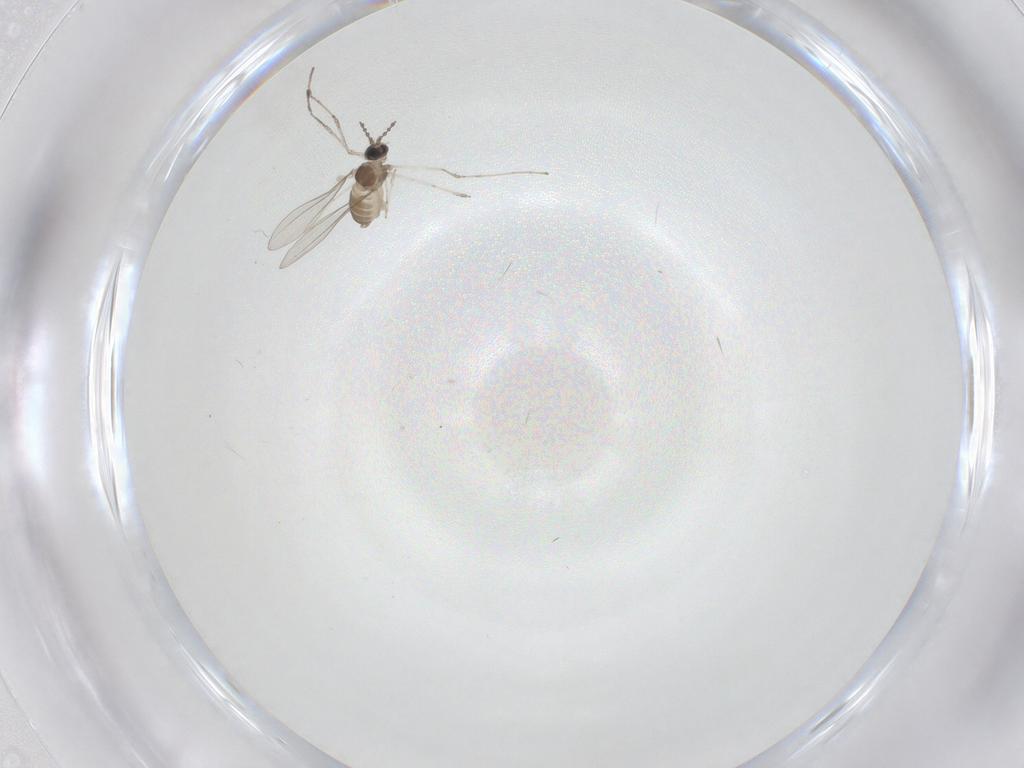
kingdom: Animalia
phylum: Arthropoda
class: Insecta
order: Diptera
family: Cecidomyiidae
